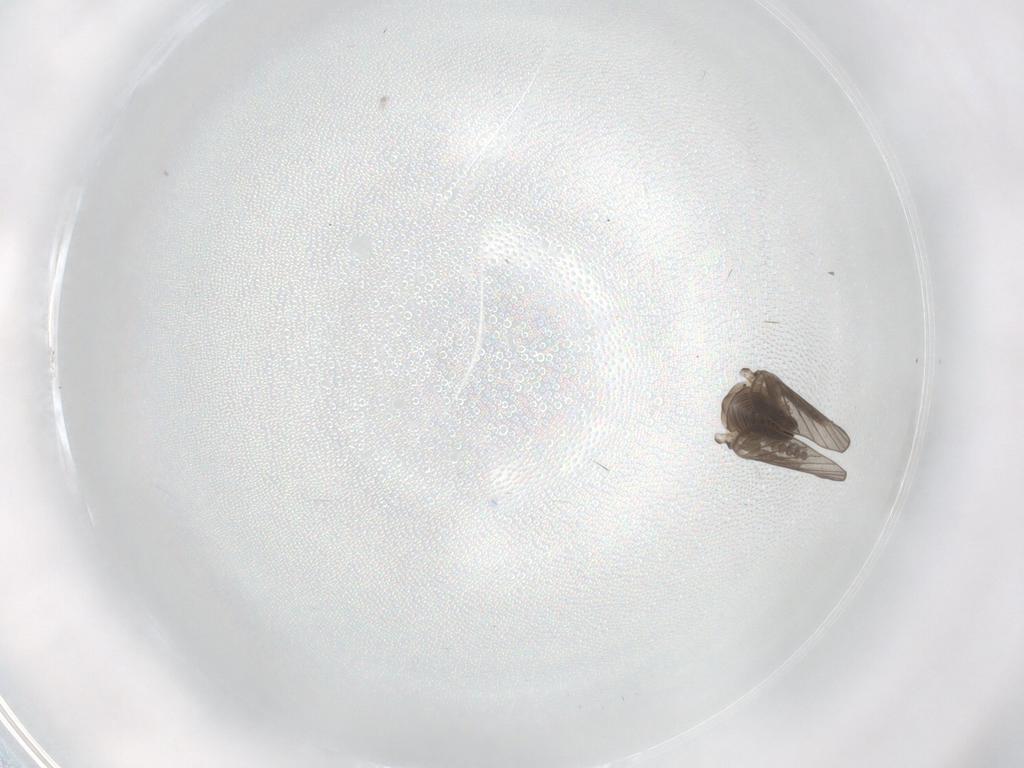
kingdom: Animalia
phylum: Arthropoda
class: Insecta
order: Diptera
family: Psychodidae
